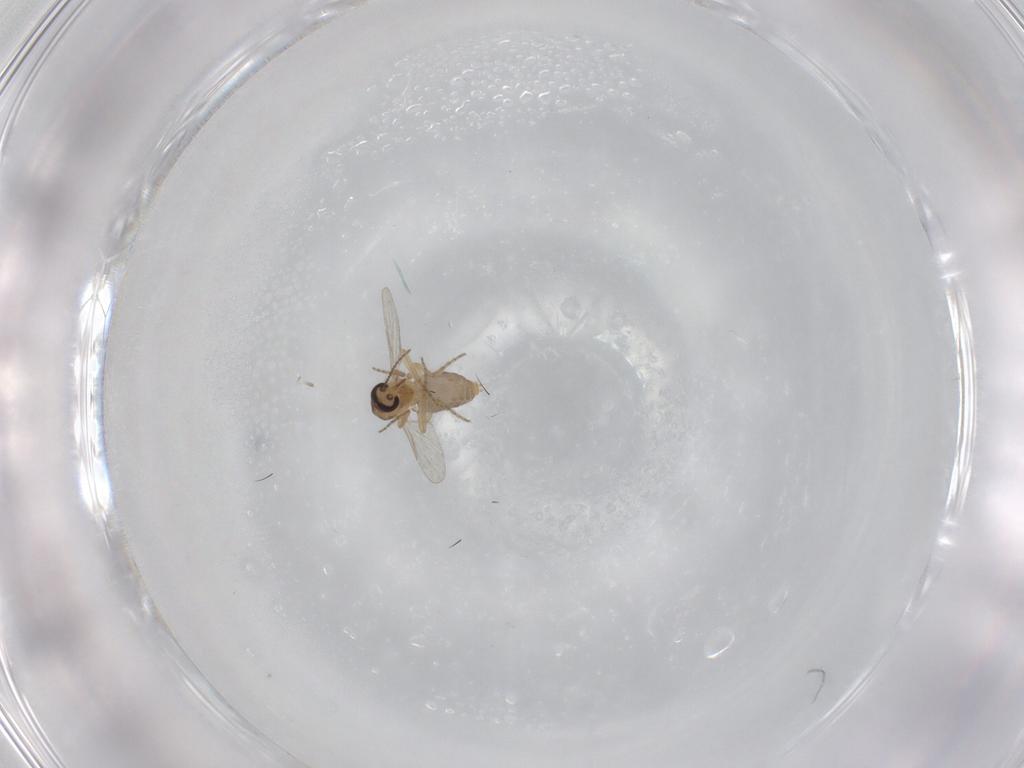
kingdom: Animalia
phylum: Arthropoda
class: Insecta
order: Diptera
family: Ceratopogonidae
